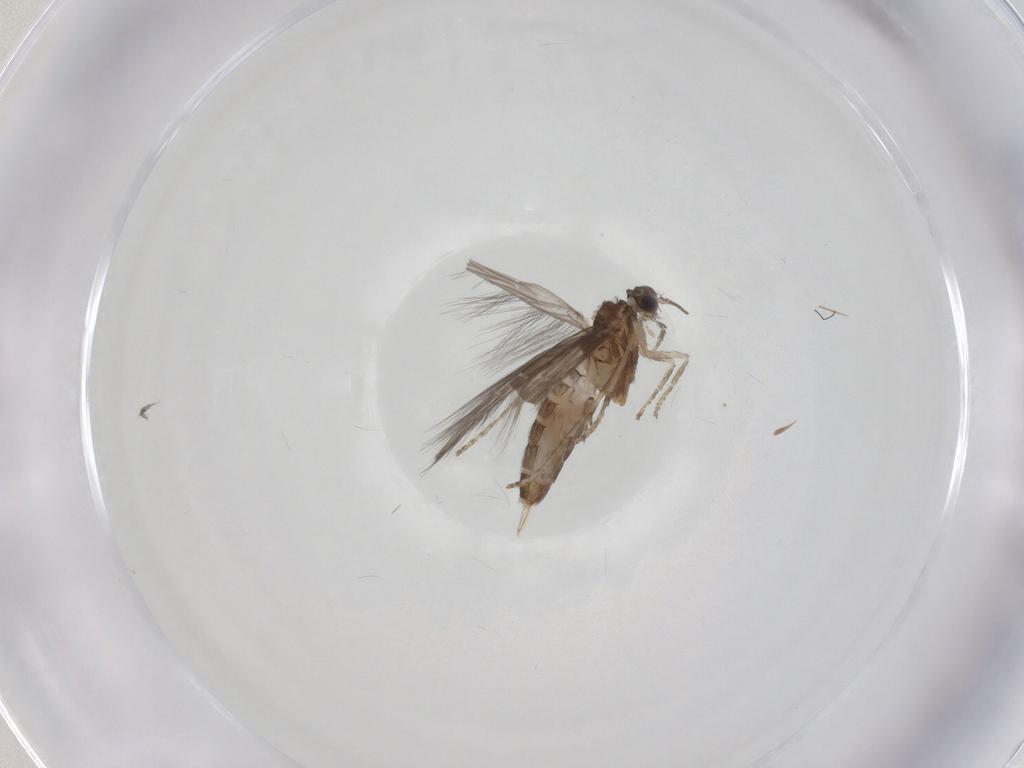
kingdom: Animalia
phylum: Arthropoda
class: Insecta
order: Trichoptera
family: Hydroptilidae
